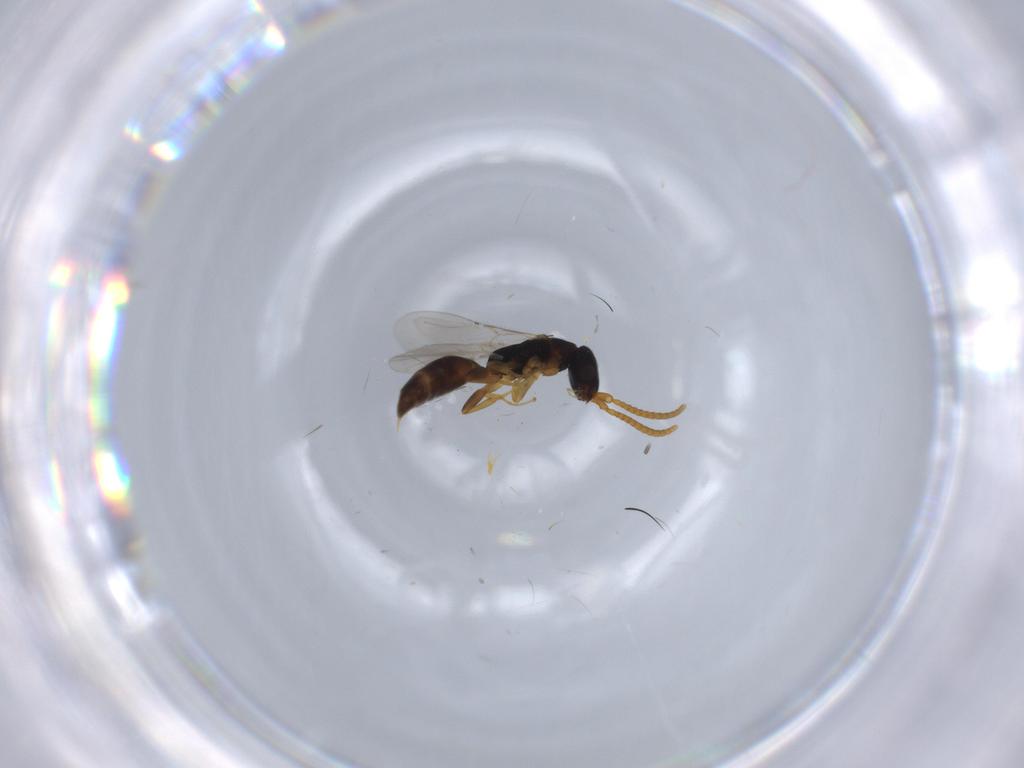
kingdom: Animalia
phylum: Arthropoda
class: Insecta
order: Hymenoptera
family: Bethylidae
